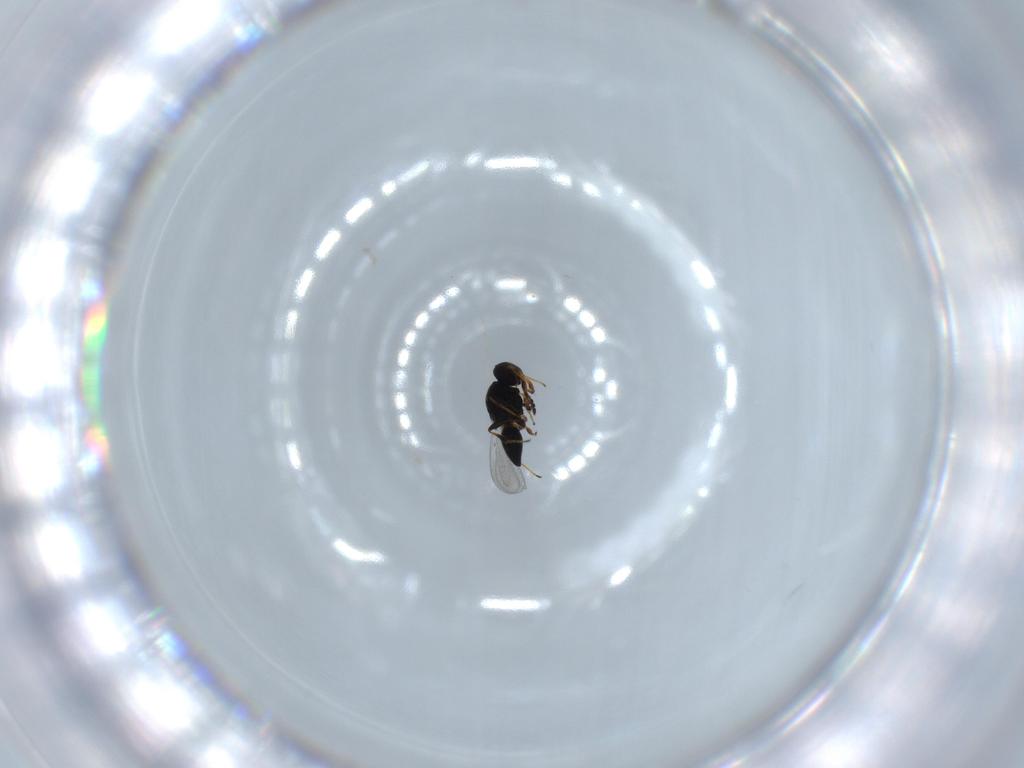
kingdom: Animalia
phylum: Arthropoda
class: Insecta
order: Hymenoptera
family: Platygastridae
